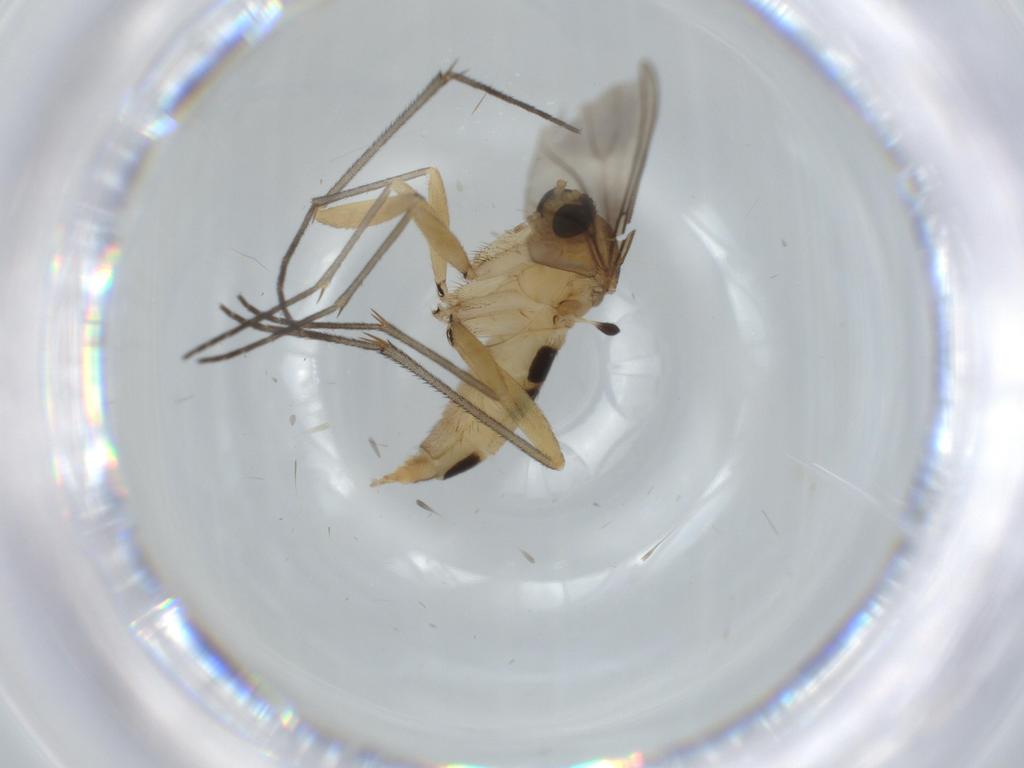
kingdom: Animalia
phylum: Arthropoda
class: Insecta
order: Diptera
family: Sciaridae
